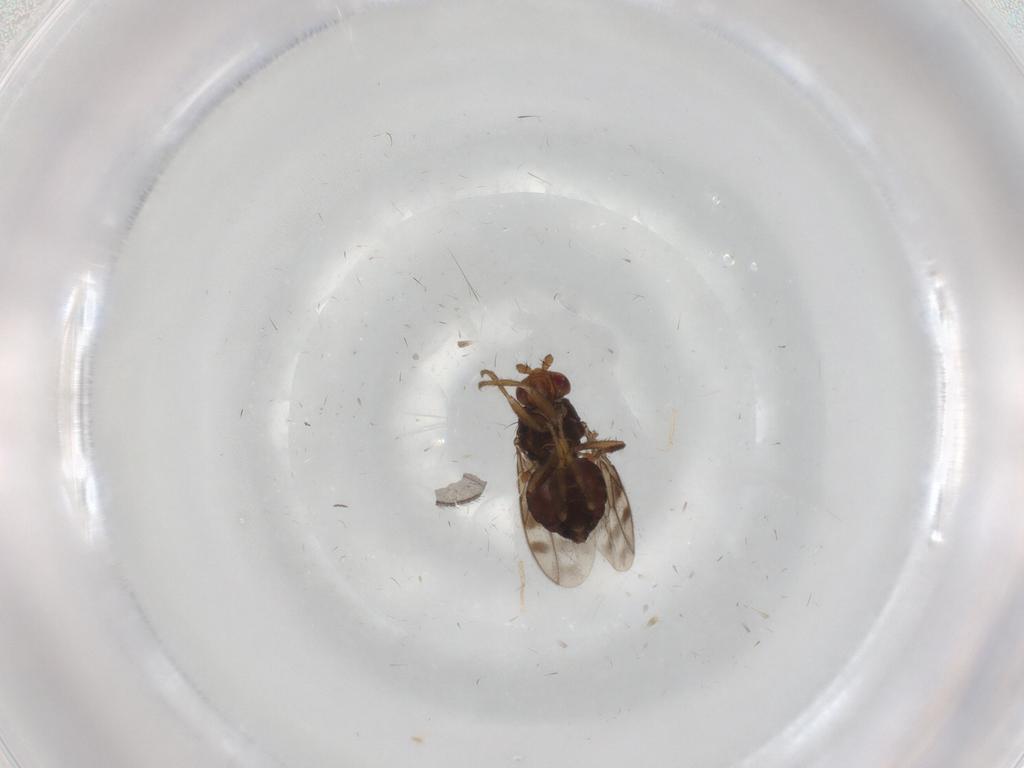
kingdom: Animalia
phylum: Arthropoda
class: Insecta
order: Diptera
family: Sphaeroceridae
